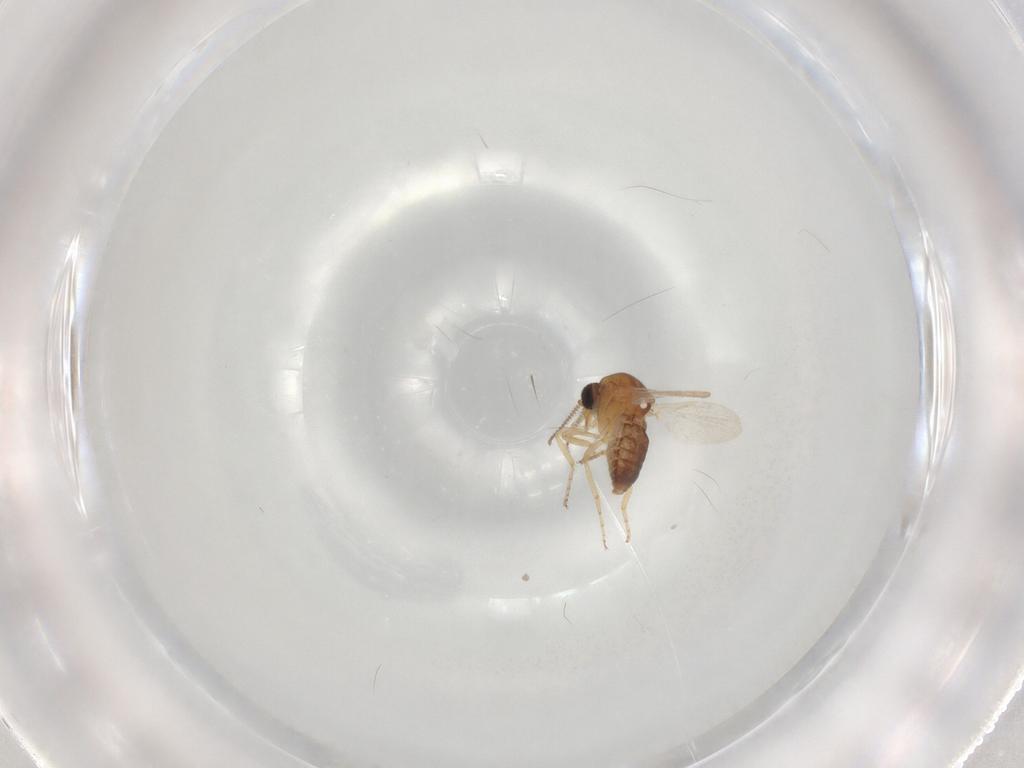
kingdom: Animalia
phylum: Arthropoda
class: Insecta
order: Diptera
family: Ceratopogonidae
